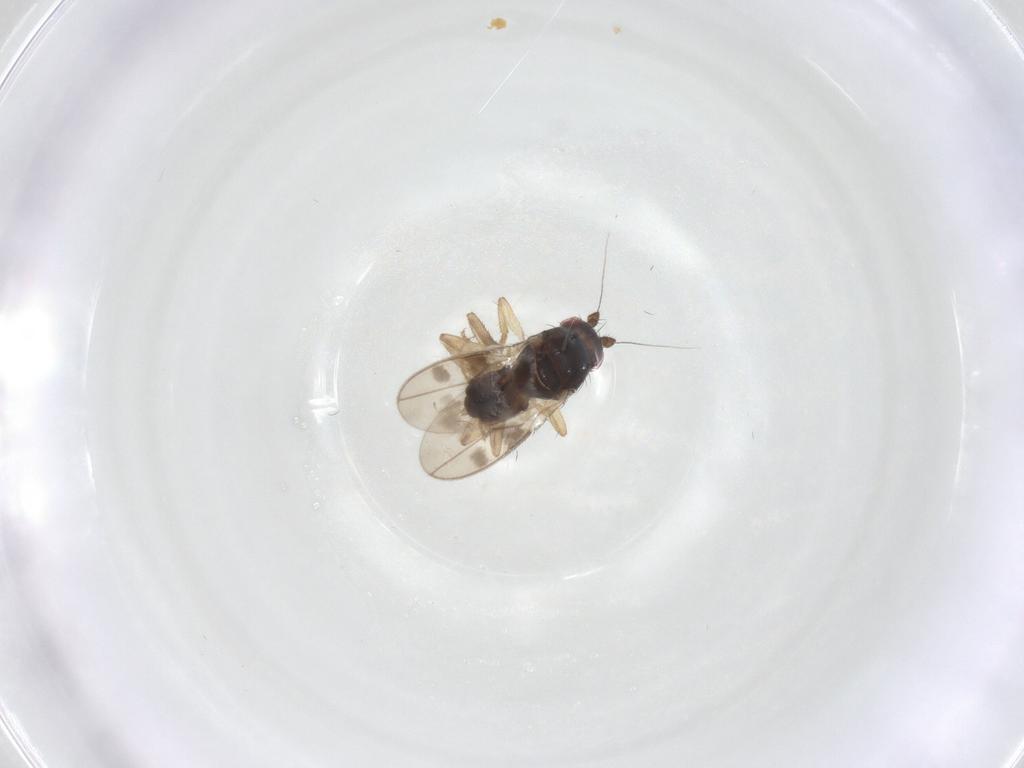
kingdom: Animalia
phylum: Arthropoda
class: Insecta
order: Diptera
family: Sphaeroceridae
